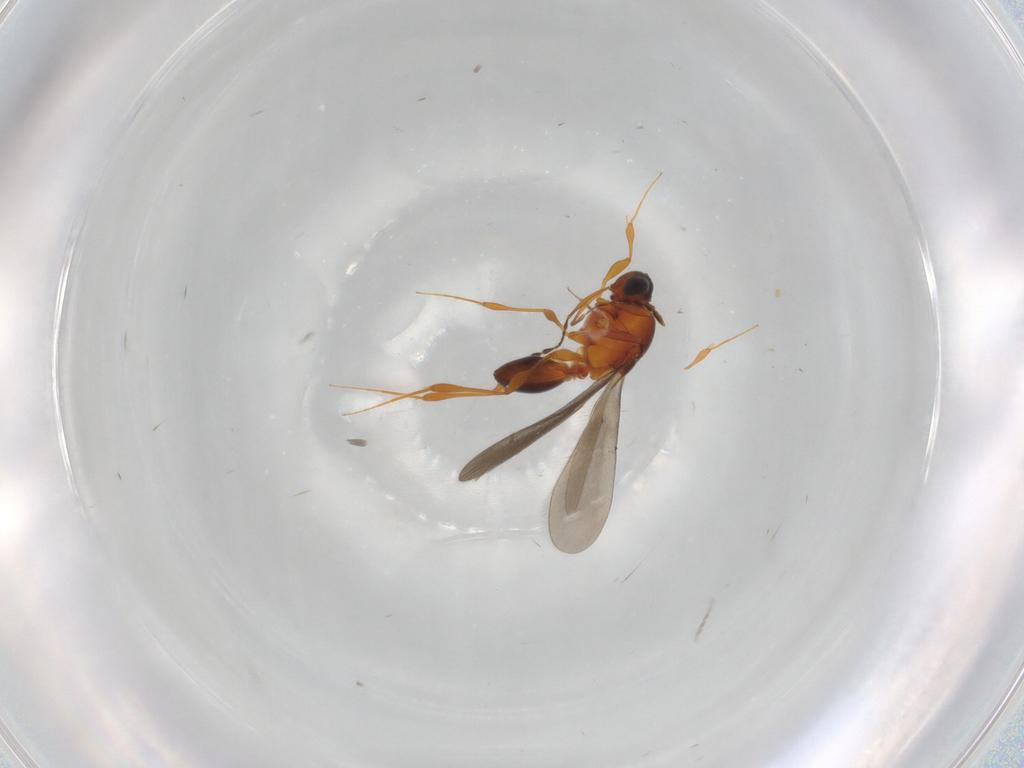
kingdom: Animalia
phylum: Arthropoda
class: Insecta
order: Hymenoptera
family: Platygastridae
